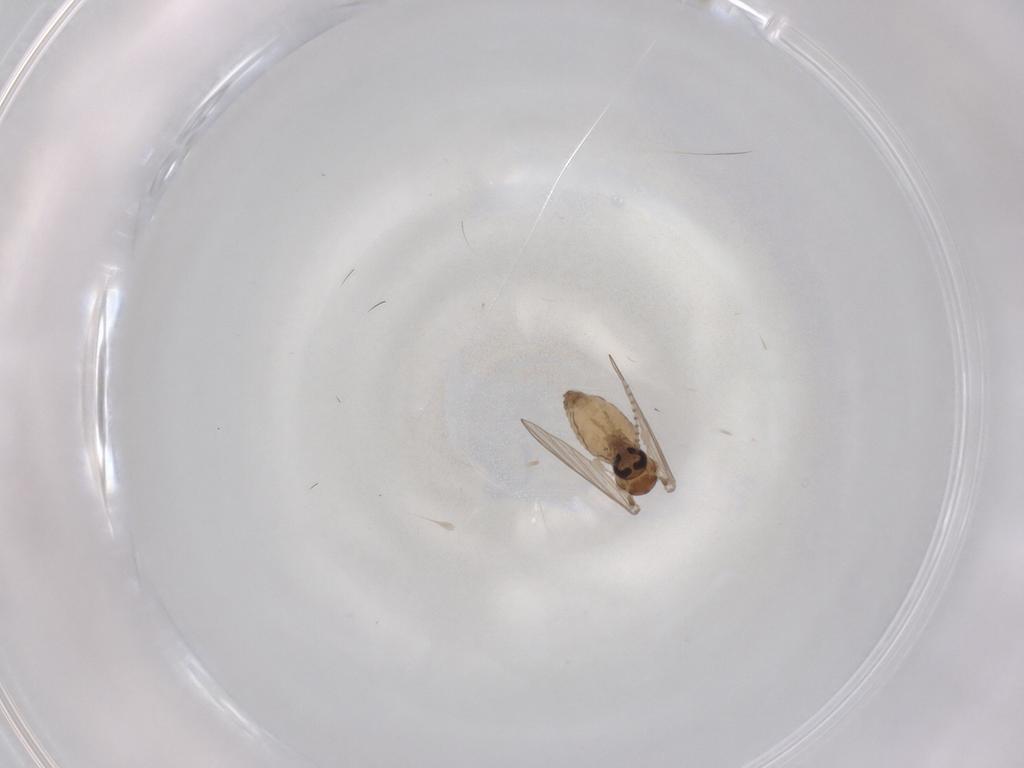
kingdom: Animalia
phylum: Arthropoda
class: Insecta
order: Diptera
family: Psychodidae
